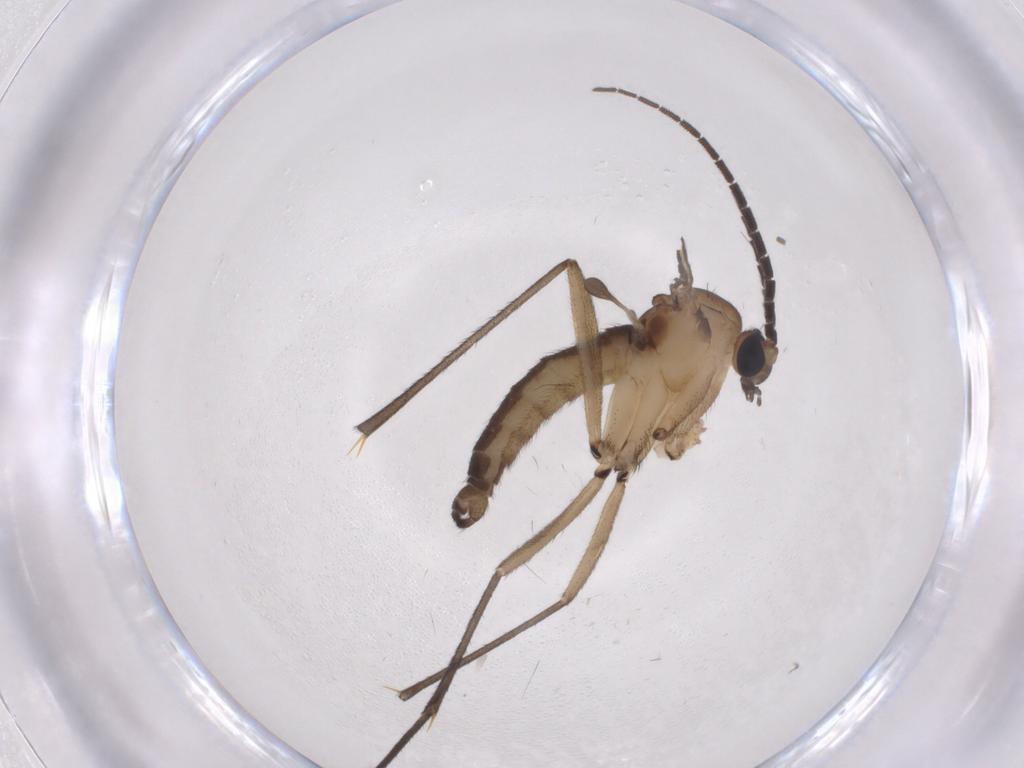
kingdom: Animalia
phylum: Arthropoda
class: Insecta
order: Diptera
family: Sciaridae
